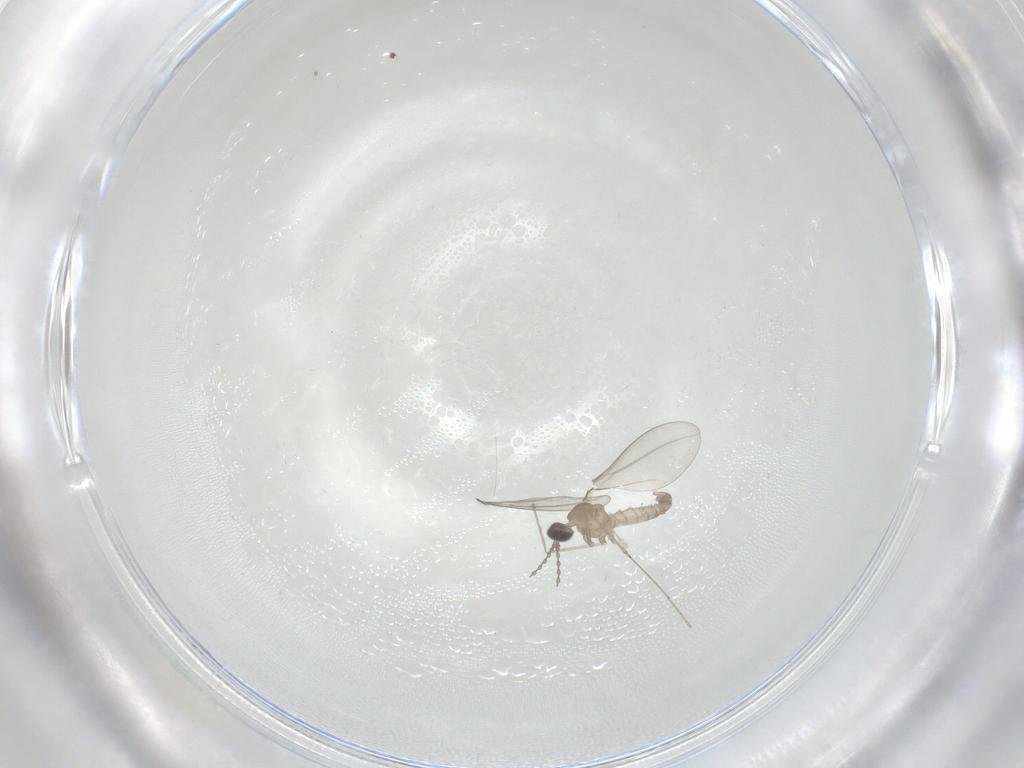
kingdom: Animalia
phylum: Arthropoda
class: Insecta
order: Diptera
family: Cecidomyiidae
